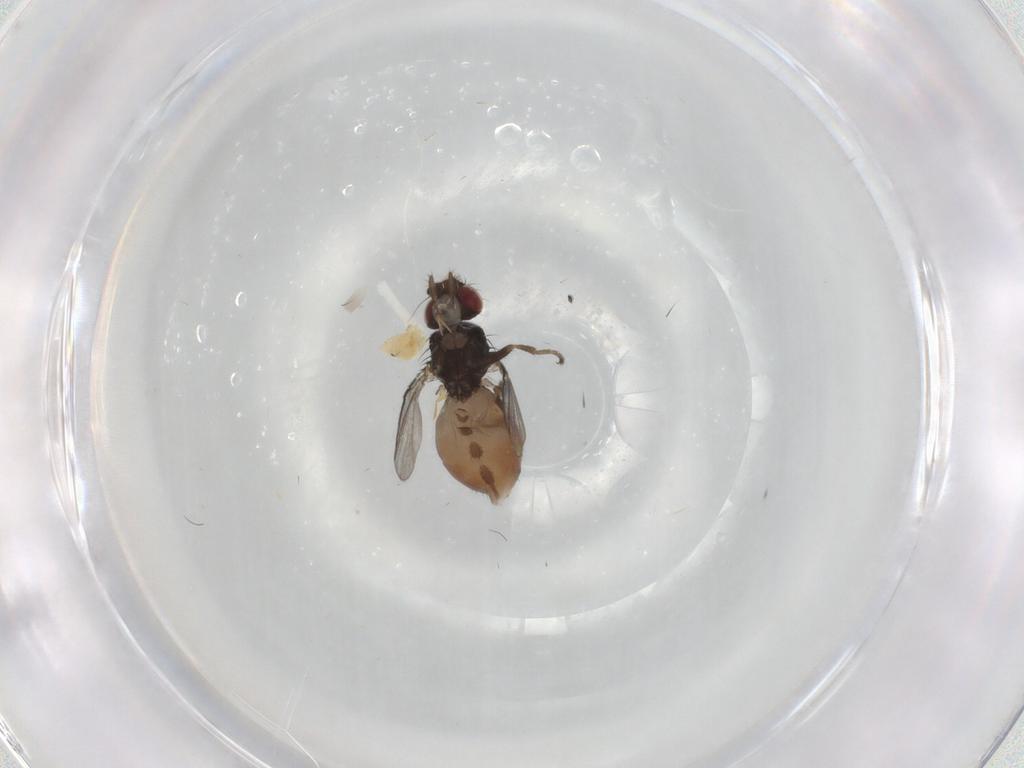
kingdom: Animalia
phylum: Arthropoda
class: Insecta
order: Diptera
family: Milichiidae
